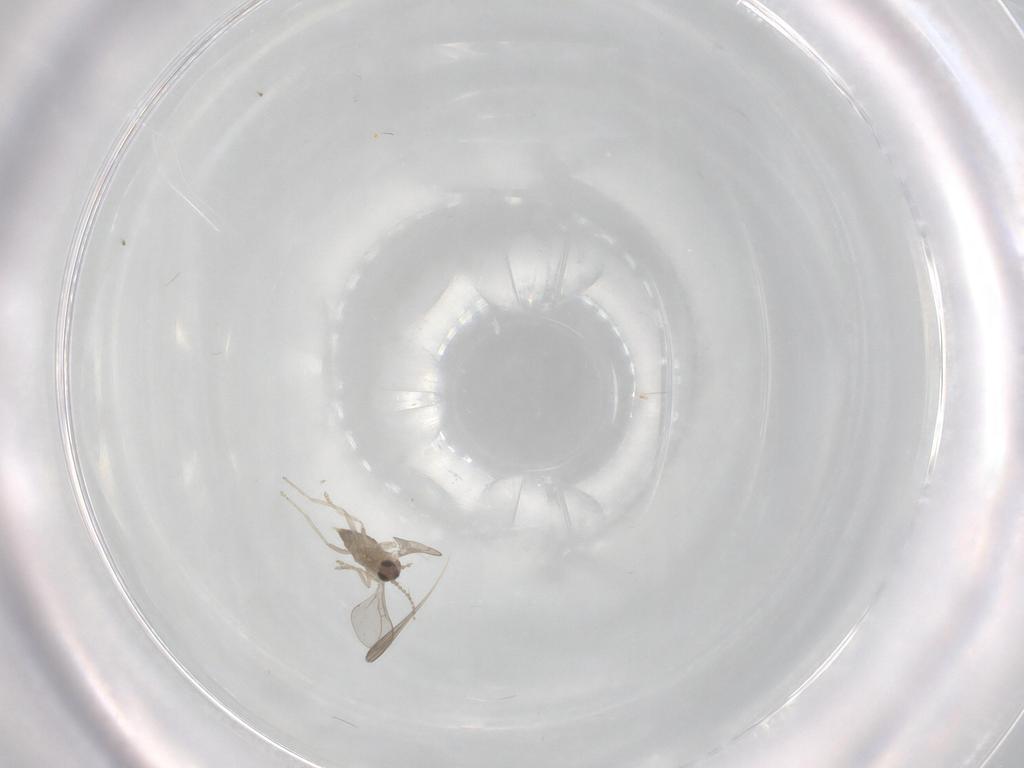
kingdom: Animalia
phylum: Arthropoda
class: Insecta
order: Diptera
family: Cecidomyiidae
